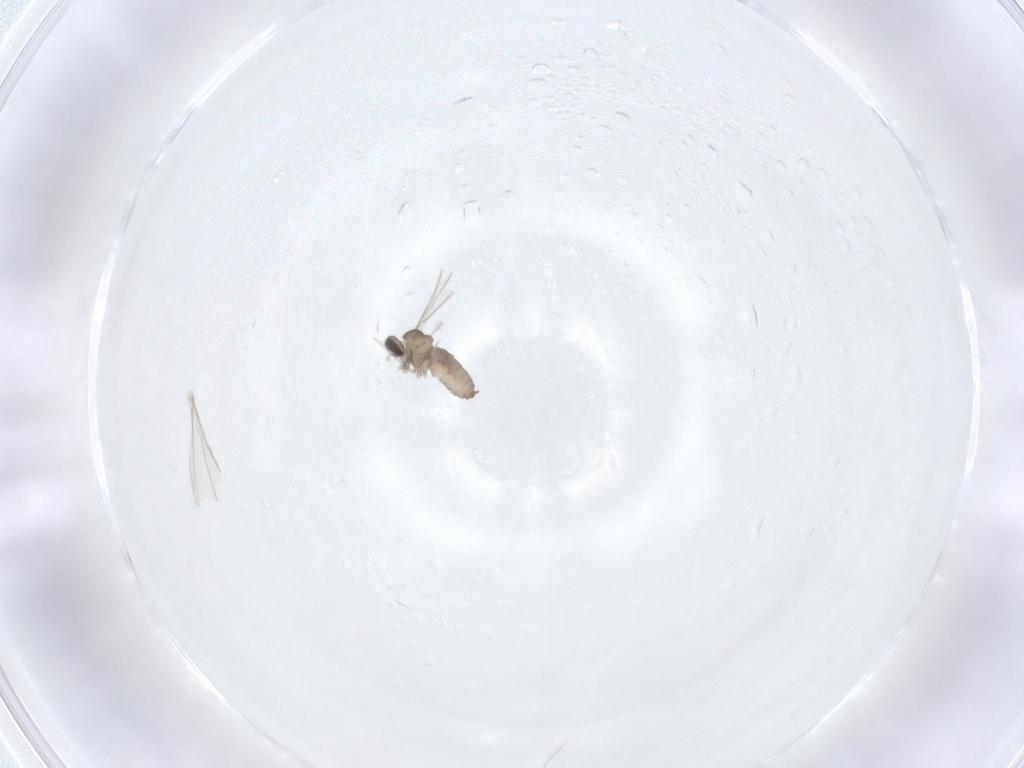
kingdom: Animalia
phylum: Arthropoda
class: Insecta
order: Diptera
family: Cecidomyiidae
